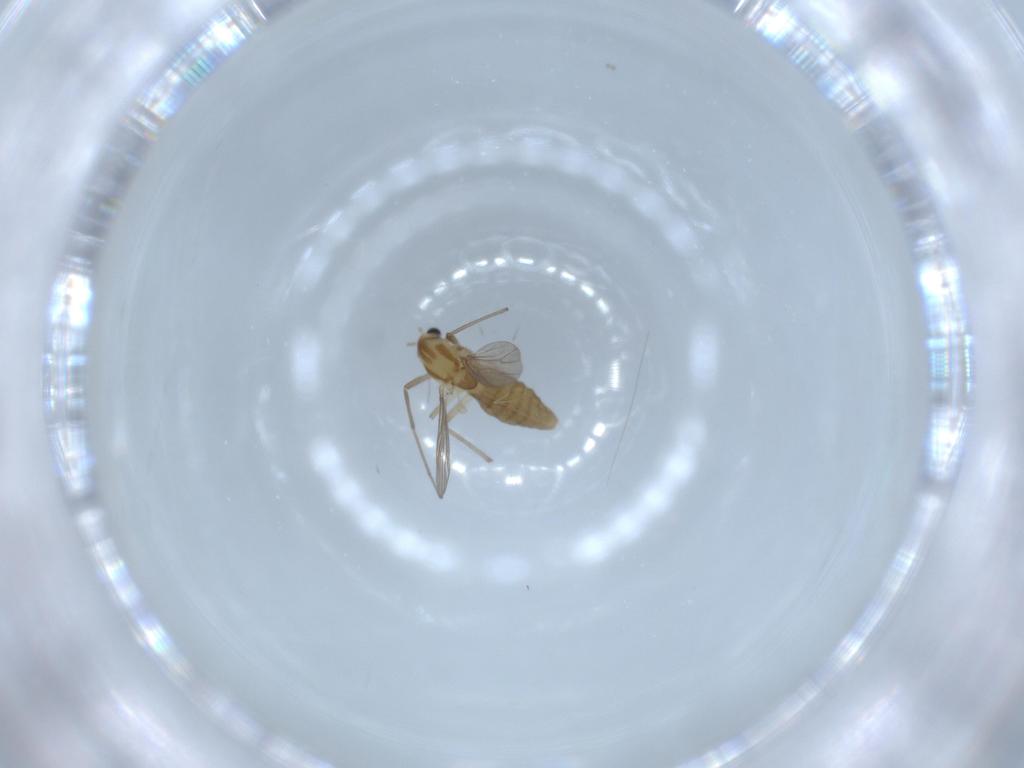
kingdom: Animalia
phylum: Arthropoda
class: Insecta
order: Diptera
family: Chironomidae
